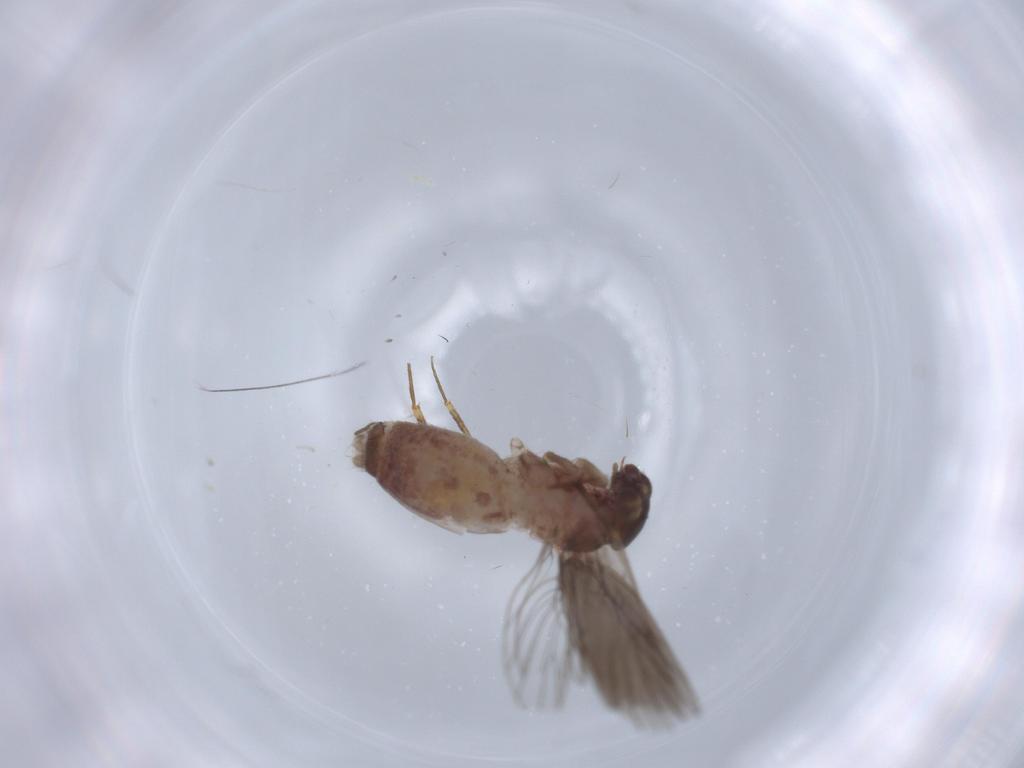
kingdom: Animalia
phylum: Arthropoda
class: Insecta
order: Psocodea
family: Lepidopsocidae
